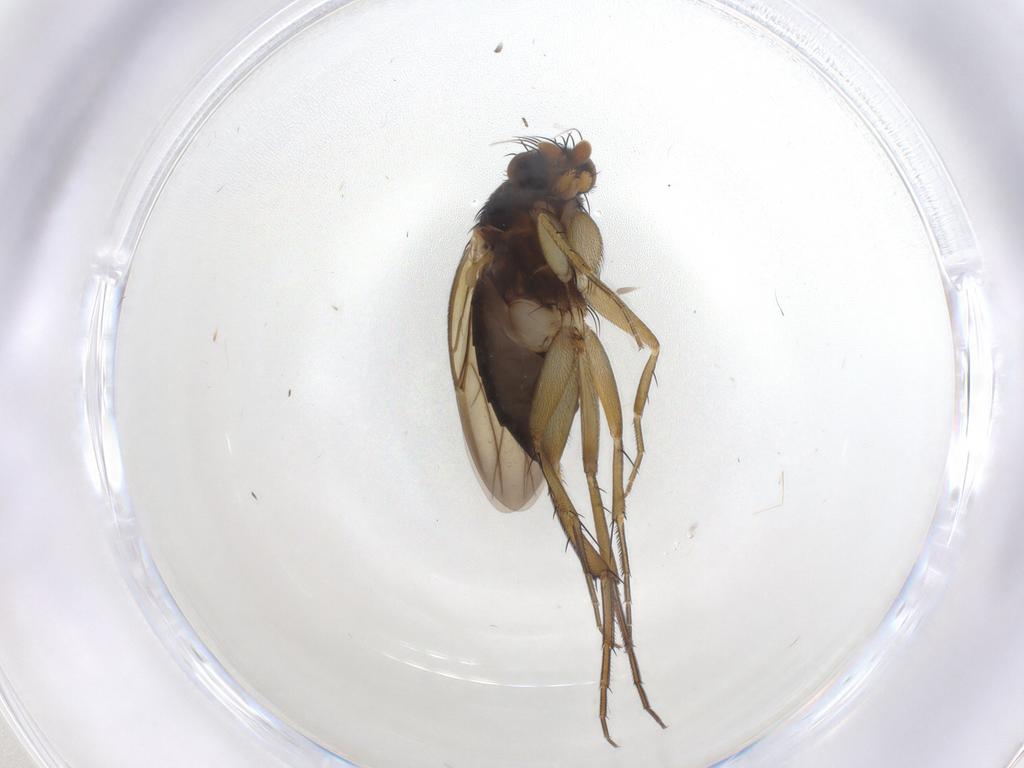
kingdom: Animalia
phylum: Arthropoda
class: Insecta
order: Diptera
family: Phoridae
